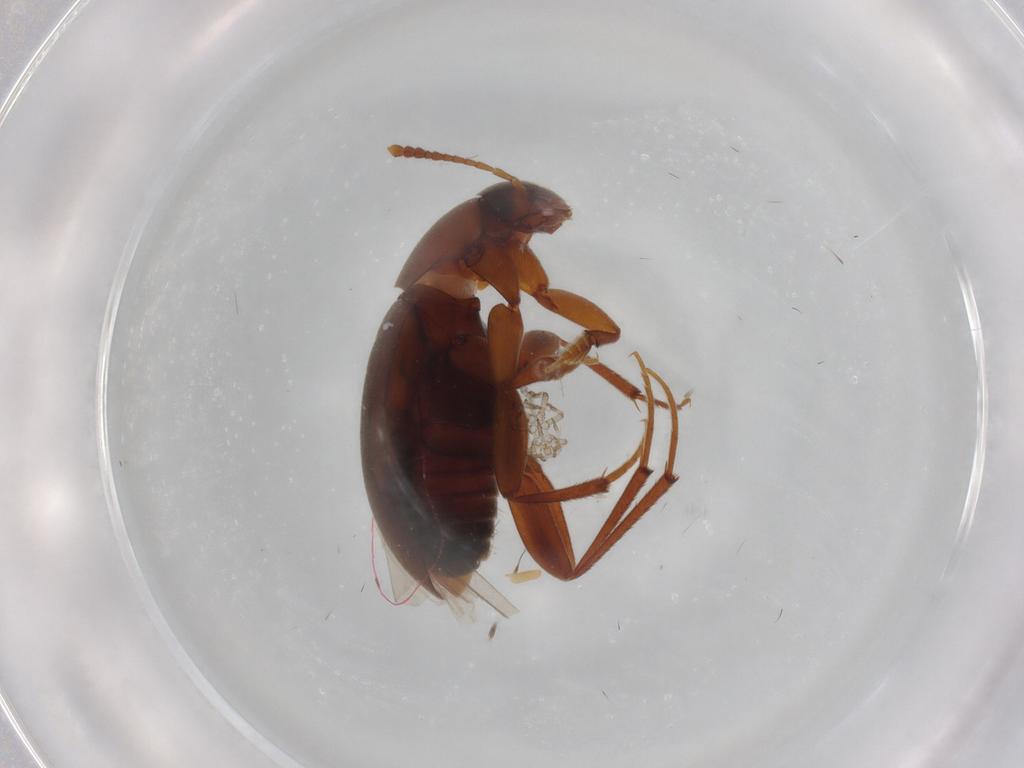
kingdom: Animalia
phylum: Arthropoda
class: Insecta
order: Coleoptera
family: Leiodidae
